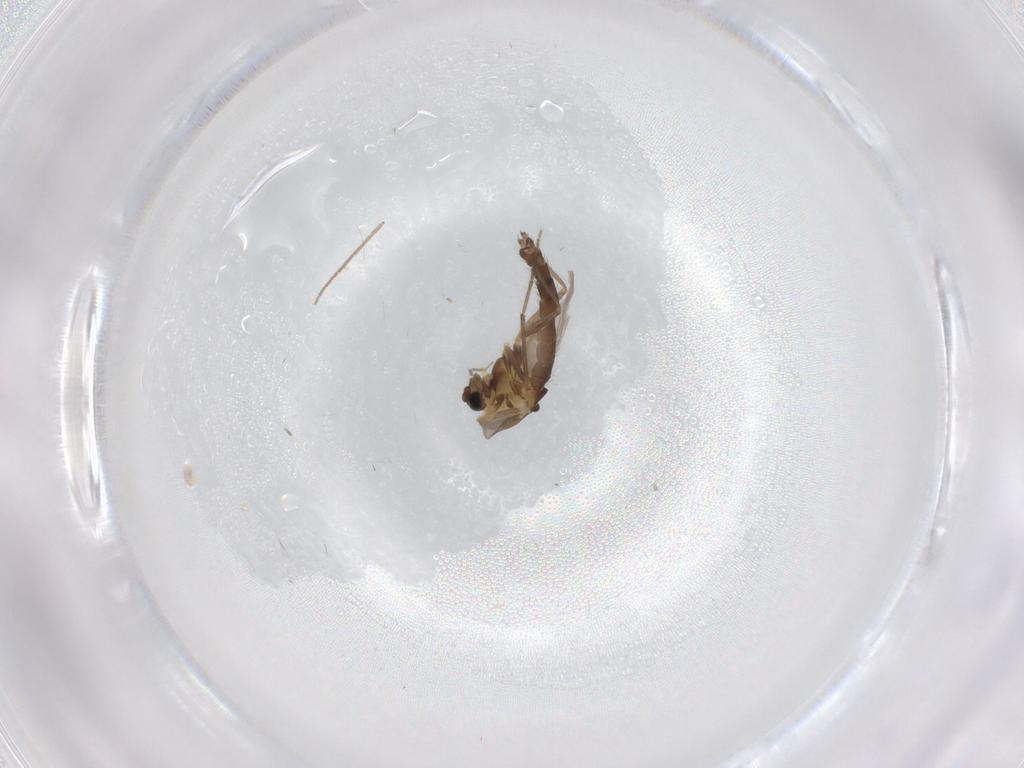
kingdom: Animalia
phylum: Arthropoda
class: Insecta
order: Diptera
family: Chironomidae
